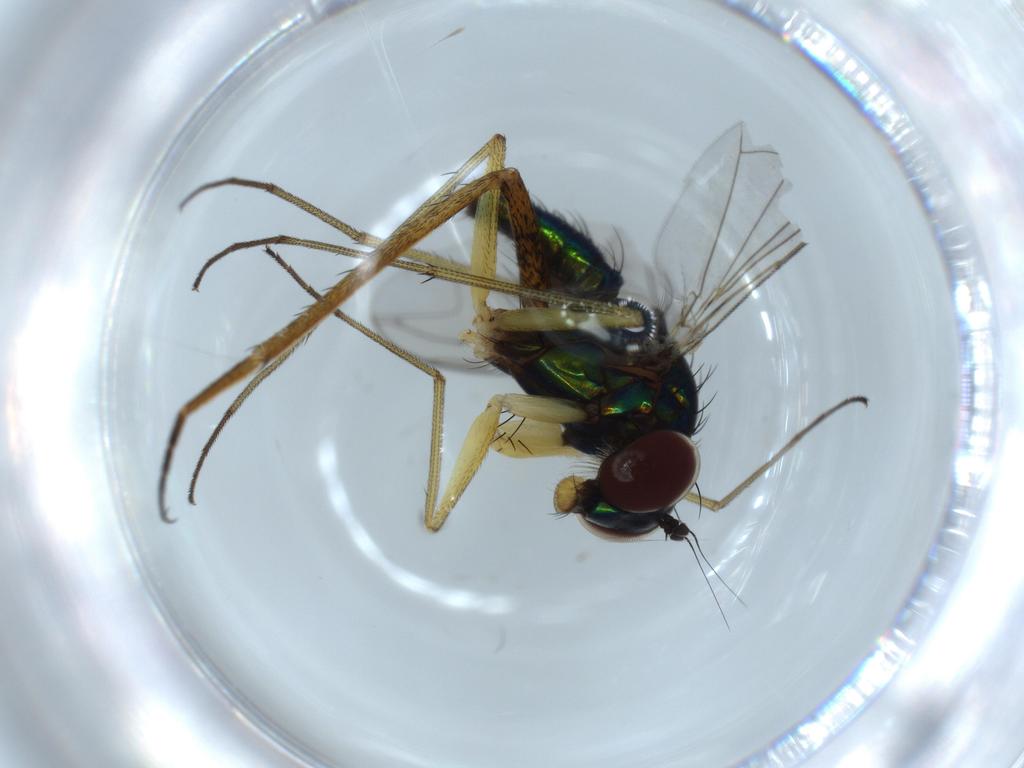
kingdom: Animalia
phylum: Arthropoda
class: Insecta
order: Diptera
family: Dolichopodidae
